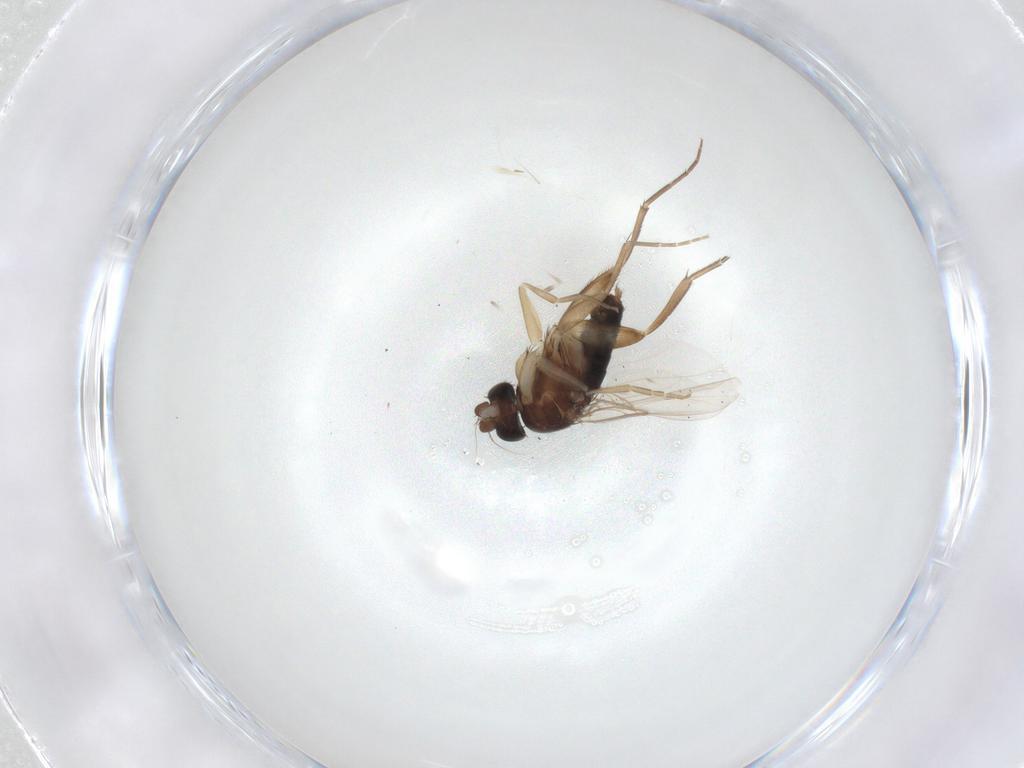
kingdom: Animalia
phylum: Arthropoda
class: Insecta
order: Diptera
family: Phoridae
